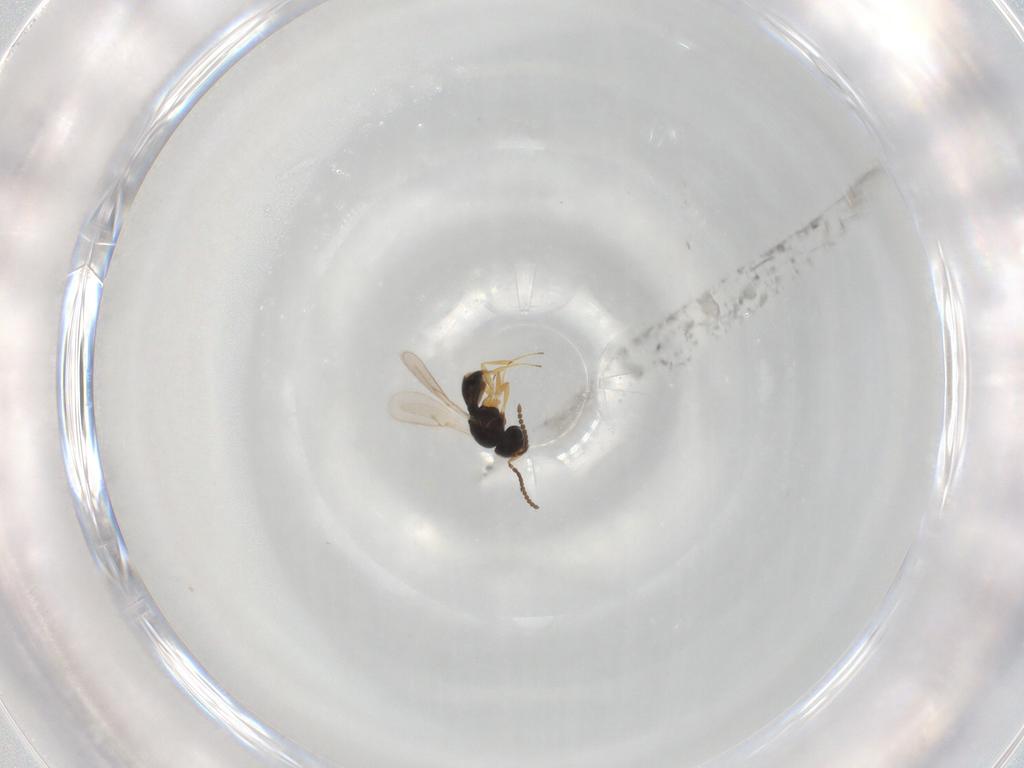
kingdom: Animalia
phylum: Arthropoda
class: Insecta
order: Hymenoptera
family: Scelionidae
